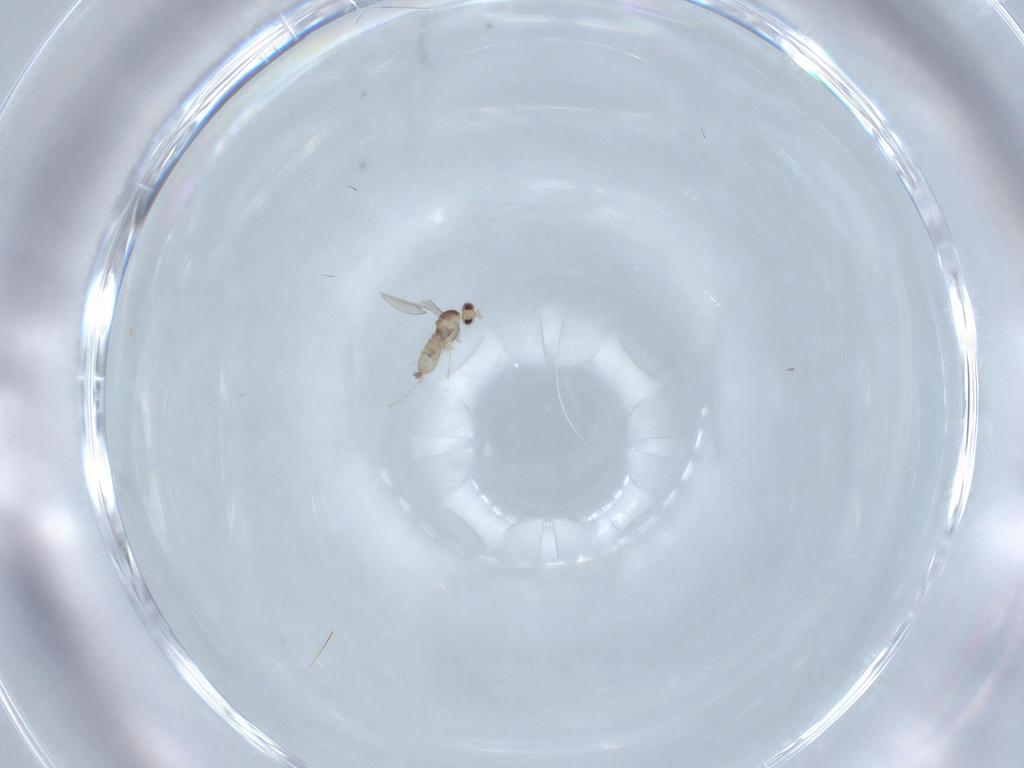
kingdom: Animalia
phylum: Arthropoda
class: Insecta
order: Diptera
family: Cecidomyiidae
